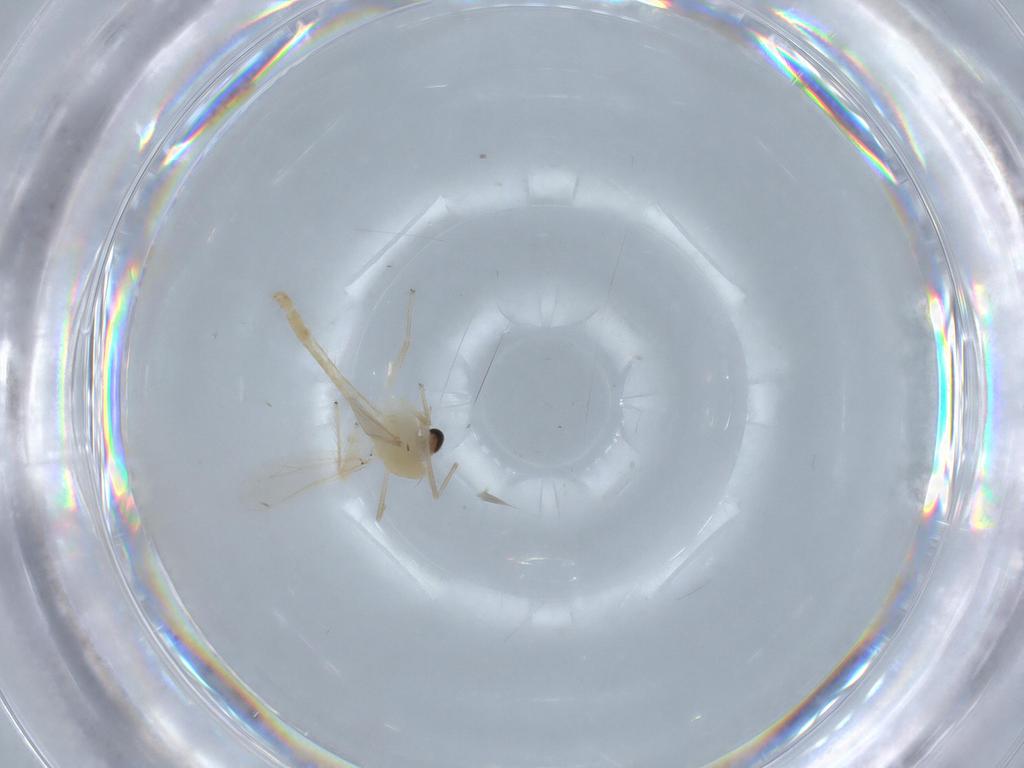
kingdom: Animalia
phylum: Arthropoda
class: Insecta
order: Diptera
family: Chironomidae
